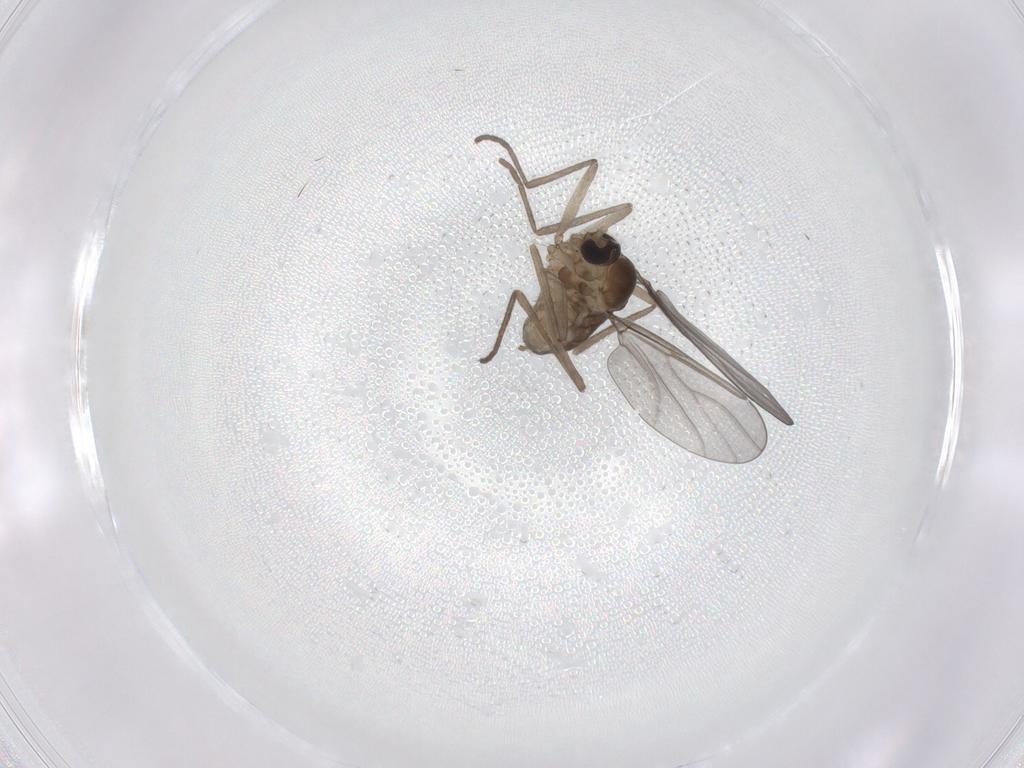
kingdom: Animalia
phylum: Arthropoda
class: Insecta
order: Diptera
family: Cecidomyiidae
